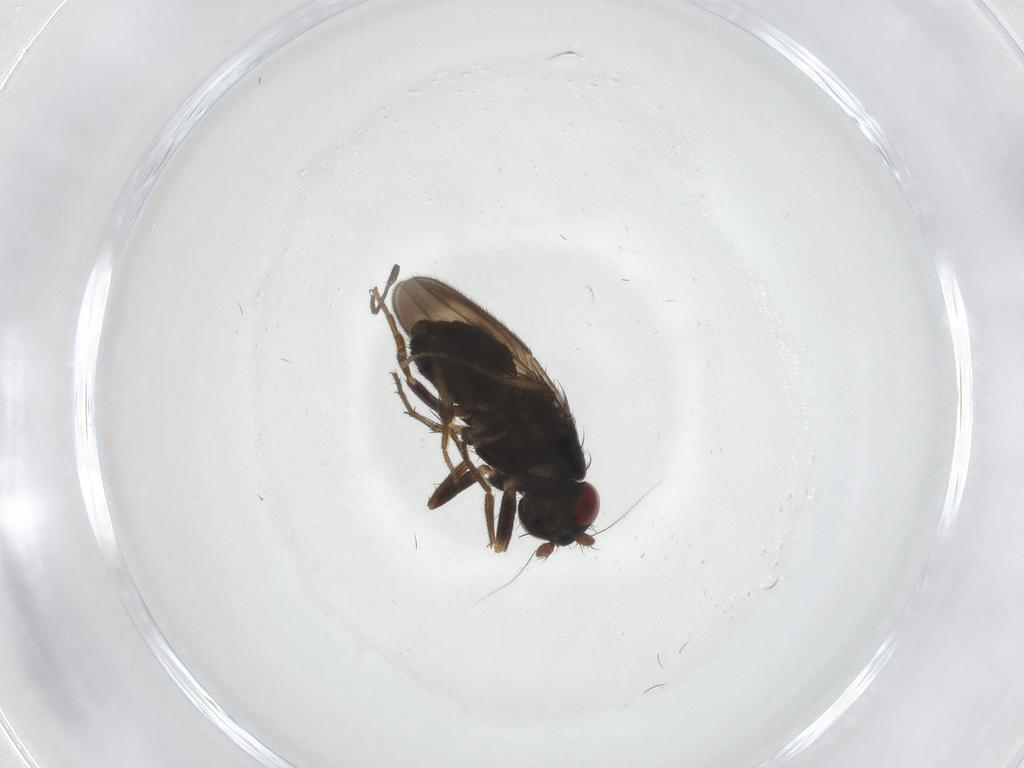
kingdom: Animalia
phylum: Arthropoda
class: Insecta
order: Diptera
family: Sphaeroceridae
